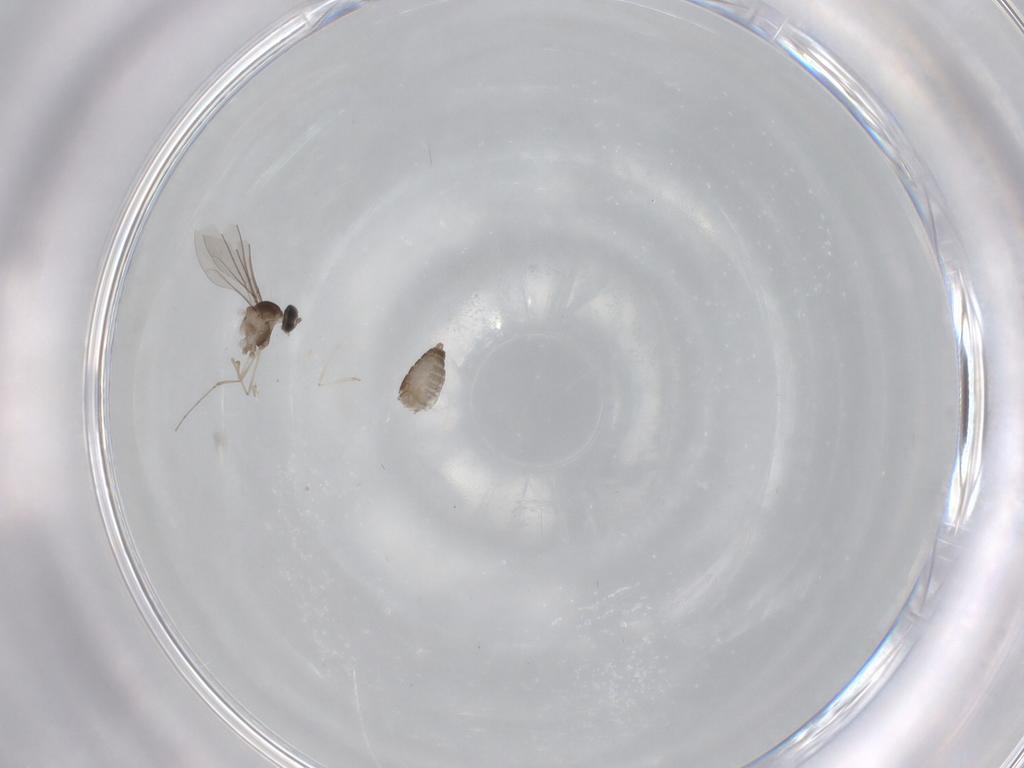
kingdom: Animalia
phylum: Arthropoda
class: Insecta
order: Diptera
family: Cecidomyiidae
